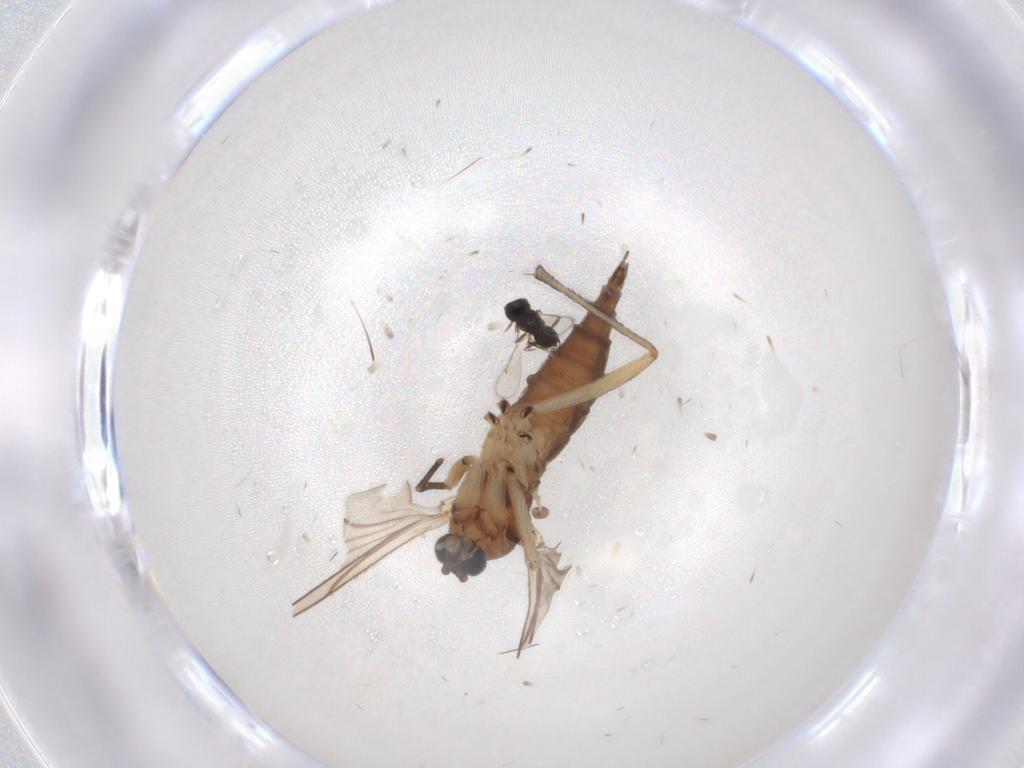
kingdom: Animalia
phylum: Arthropoda
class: Insecta
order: Diptera
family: Sciaridae
